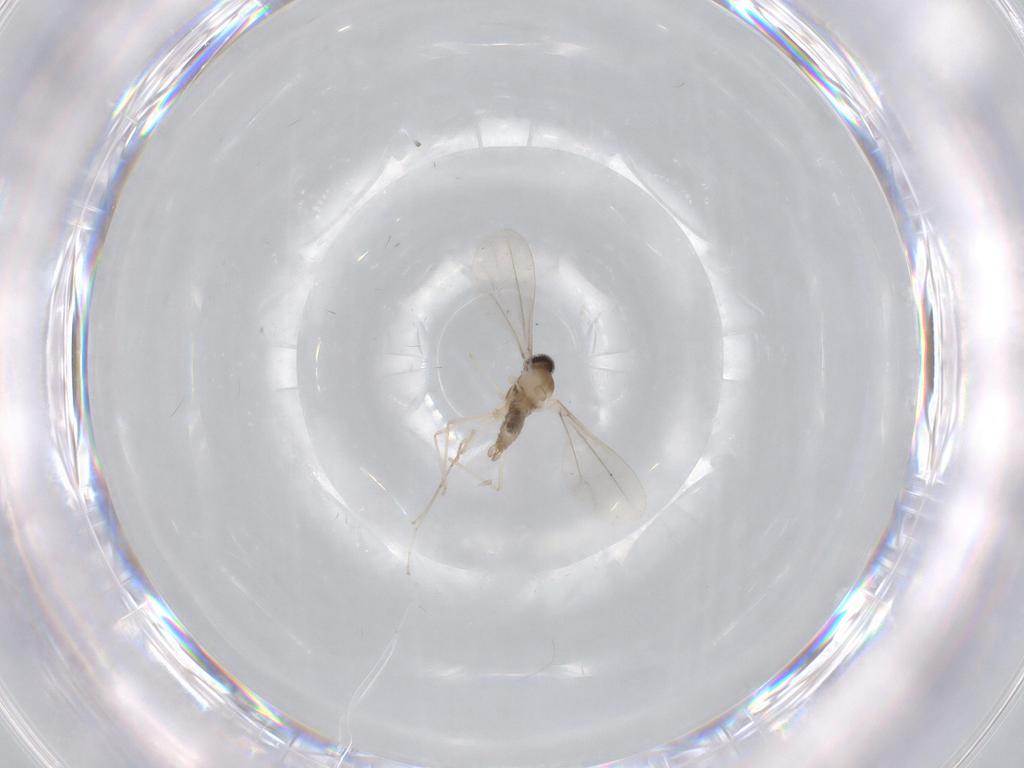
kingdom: Animalia
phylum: Arthropoda
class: Insecta
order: Diptera
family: Cecidomyiidae
